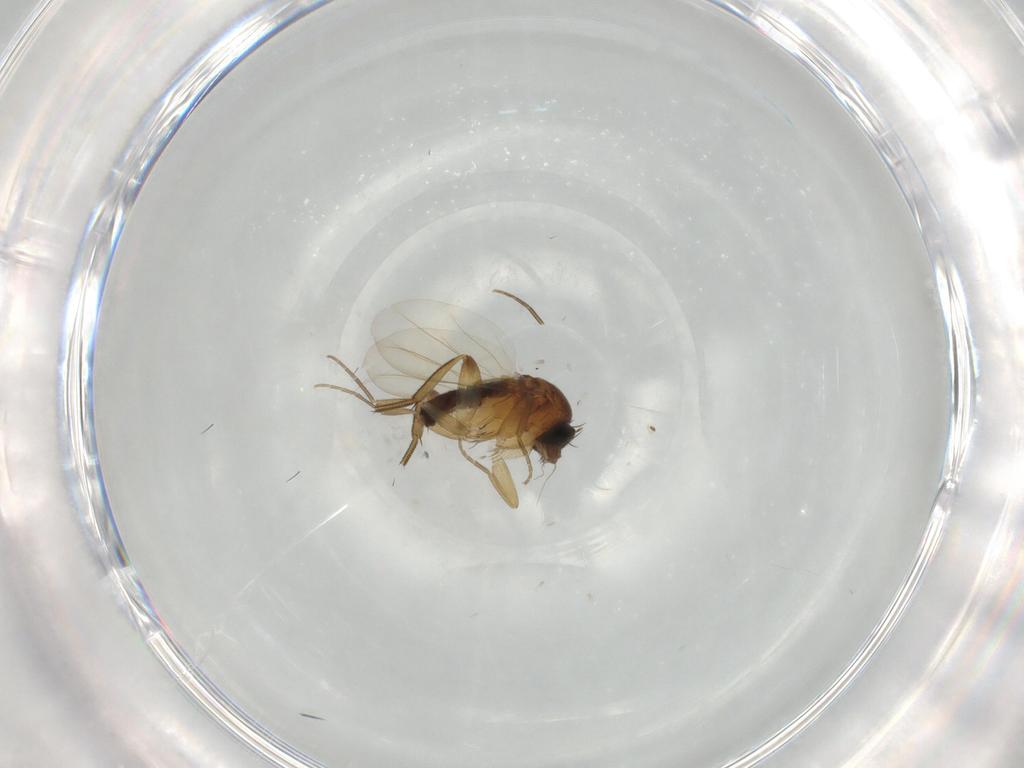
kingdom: Animalia
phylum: Arthropoda
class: Insecta
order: Diptera
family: Phoridae
